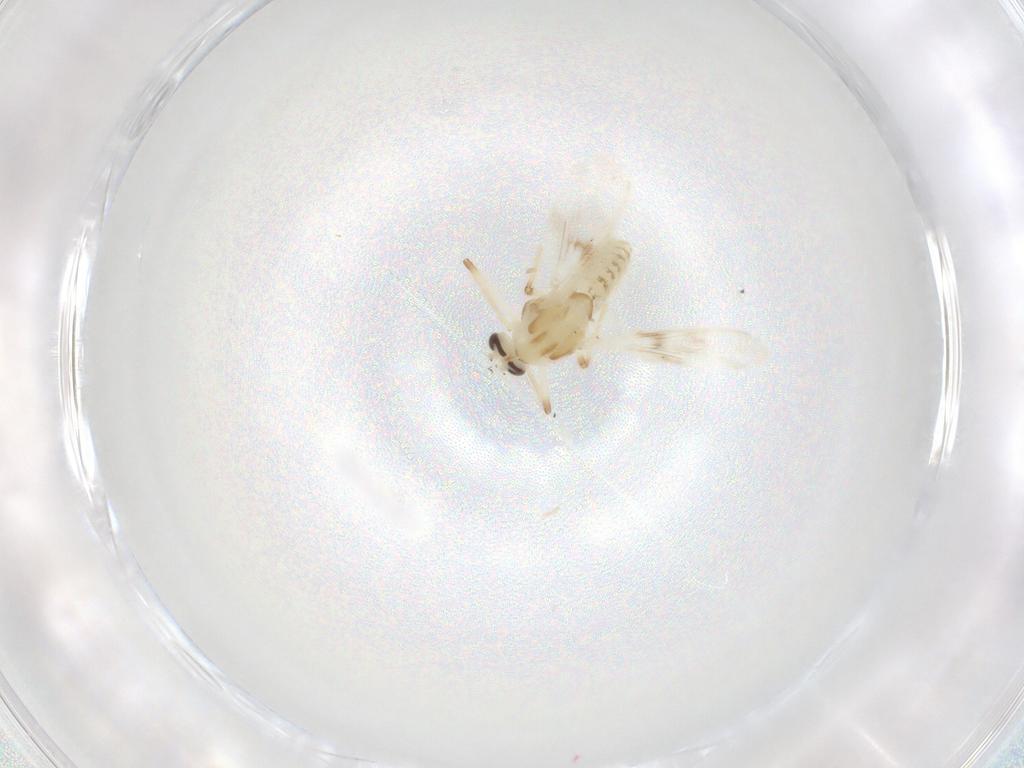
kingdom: Animalia
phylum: Arthropoda
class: Insecta
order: Diptera
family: Chironomidae
